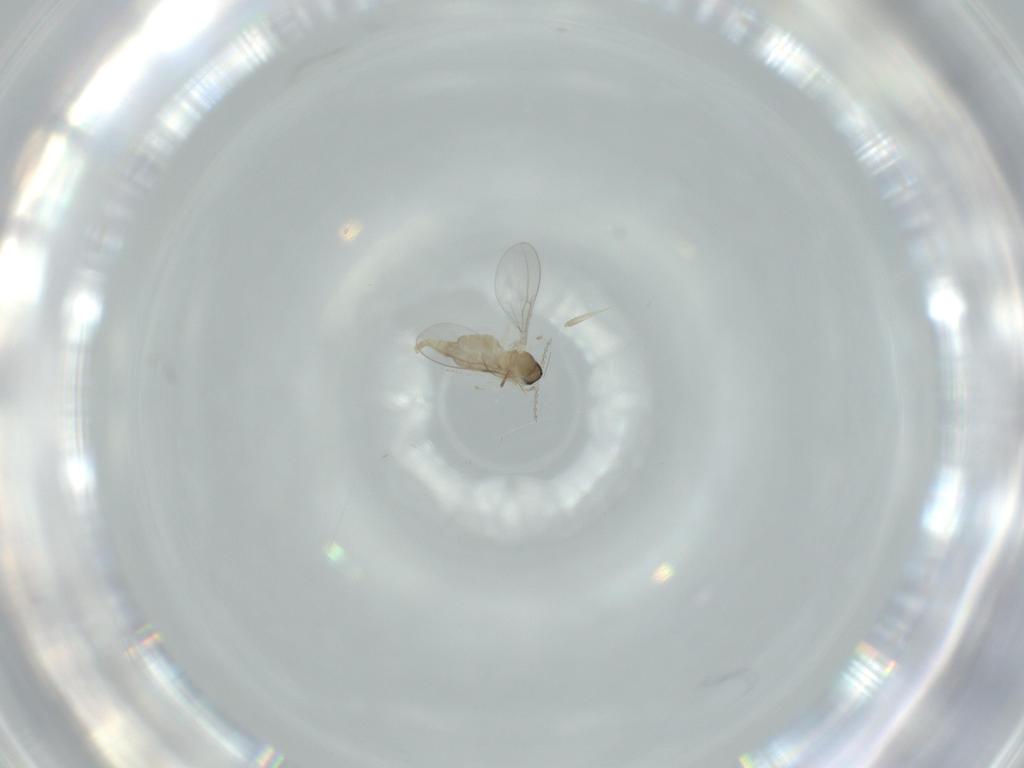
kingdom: Animalia
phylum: Arthropoda
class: Insecta
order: Diptera
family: Cecidomyiidae
